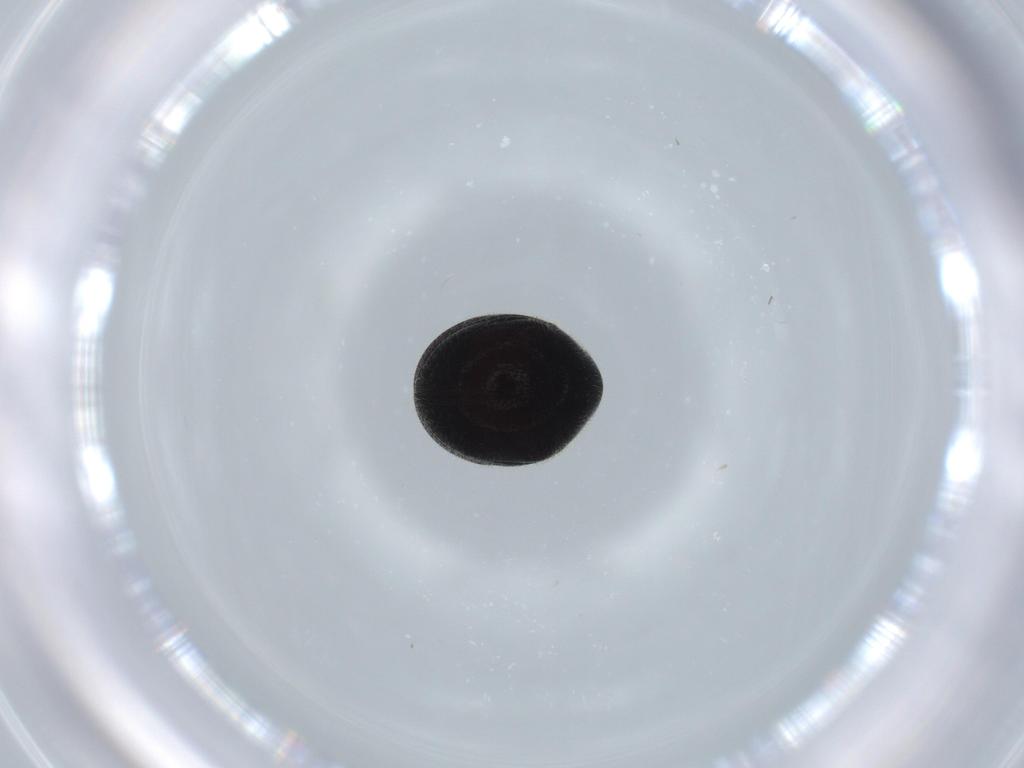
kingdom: Animalia
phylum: Arthropoda
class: Insecta
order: Coleoptera
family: Ptinidae
